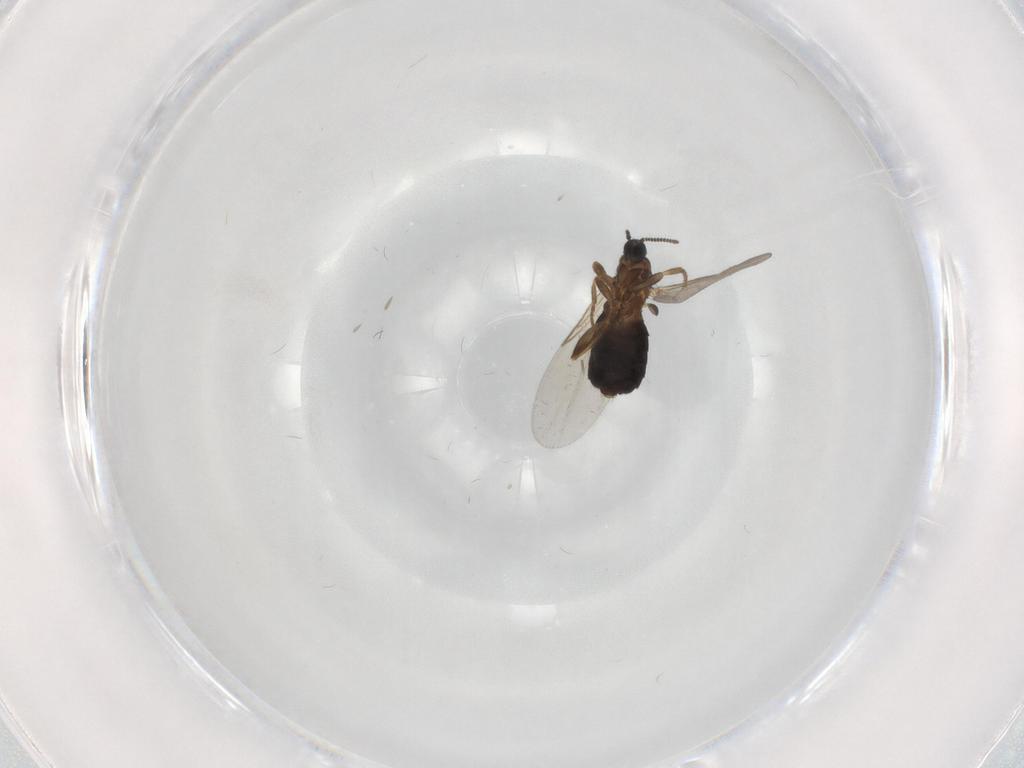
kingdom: Animalia
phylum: Arthropoda
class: Insecta
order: Diptera
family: Scatopsidae
